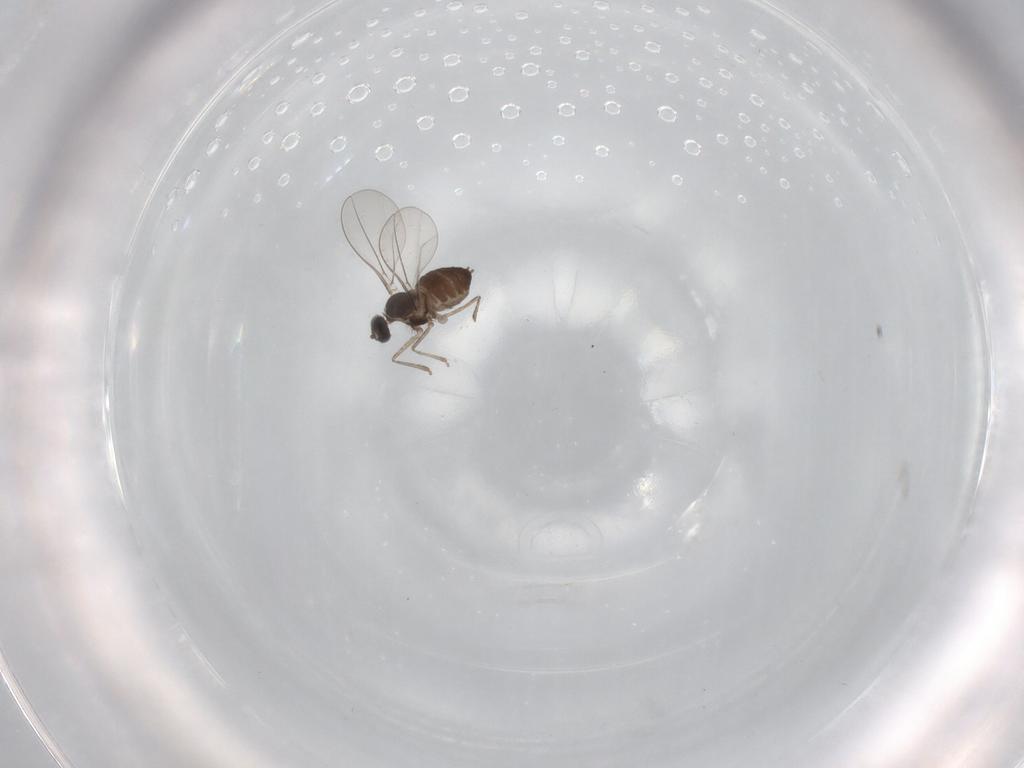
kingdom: Animalia
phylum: Arthropoda
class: Insecta
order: Diptera
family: Cecidomyiidae
